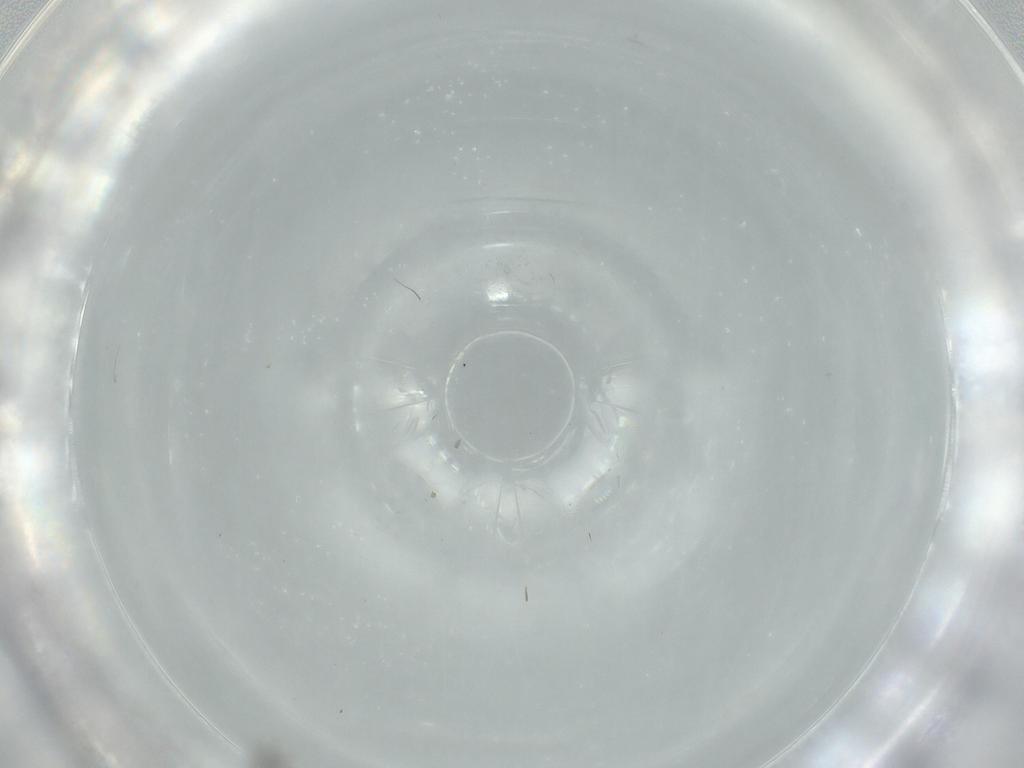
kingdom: Animalia
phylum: Arthropoda
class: Insecta
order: Diptera
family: Phoridae
